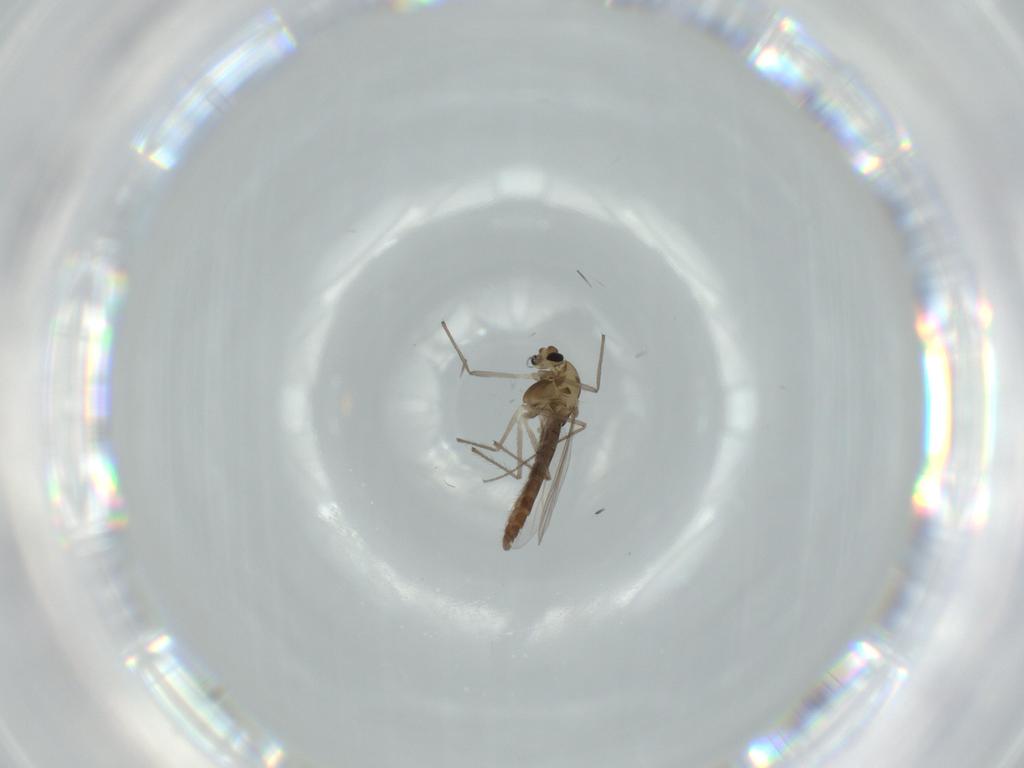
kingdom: Animalia
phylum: Arthropoda
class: Insecta
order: Diptera
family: Chironomidae
